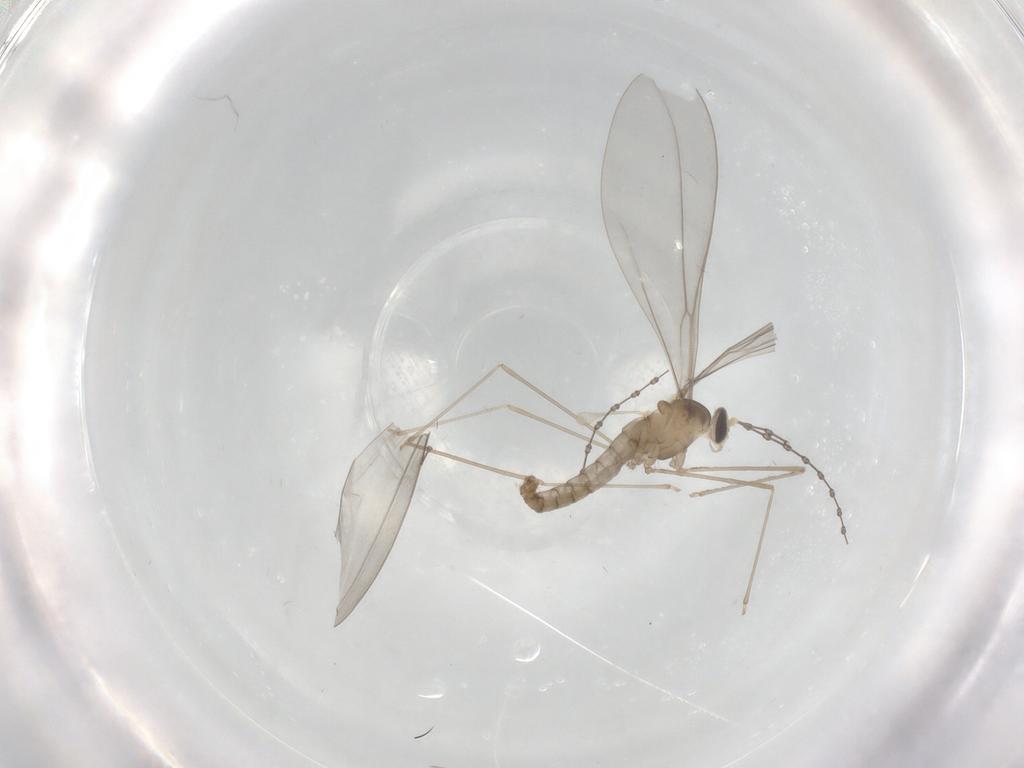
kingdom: Animalia
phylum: Arthropoda
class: Insecta
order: Diptera
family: Cecidomyiidae
